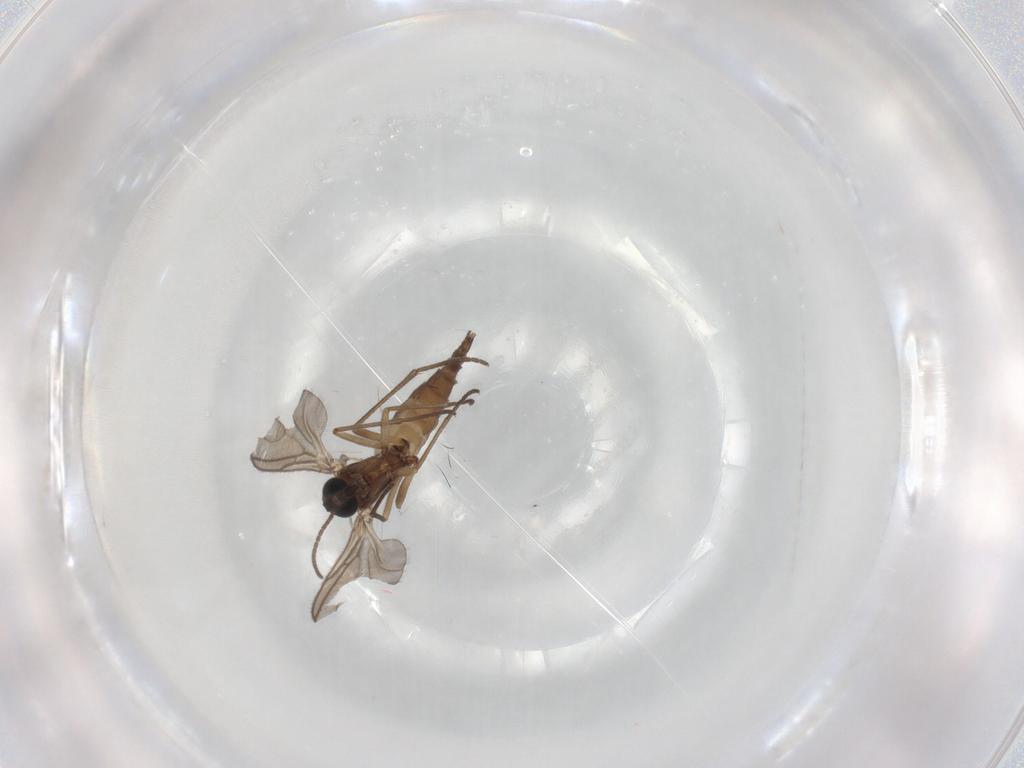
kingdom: Animalia
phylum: Arthropoda
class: Insecta
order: Diptera
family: Sciaridae
